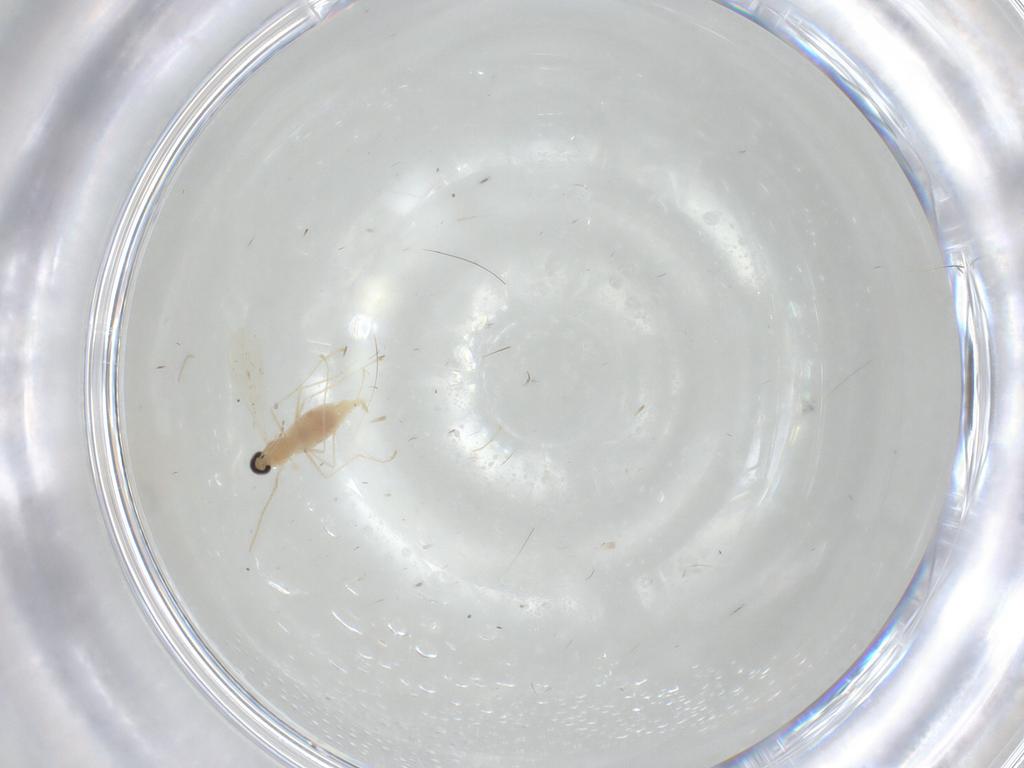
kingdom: Animalia
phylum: Arthropoda
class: Insecta
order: Diptera
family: Cecidomyiidae
